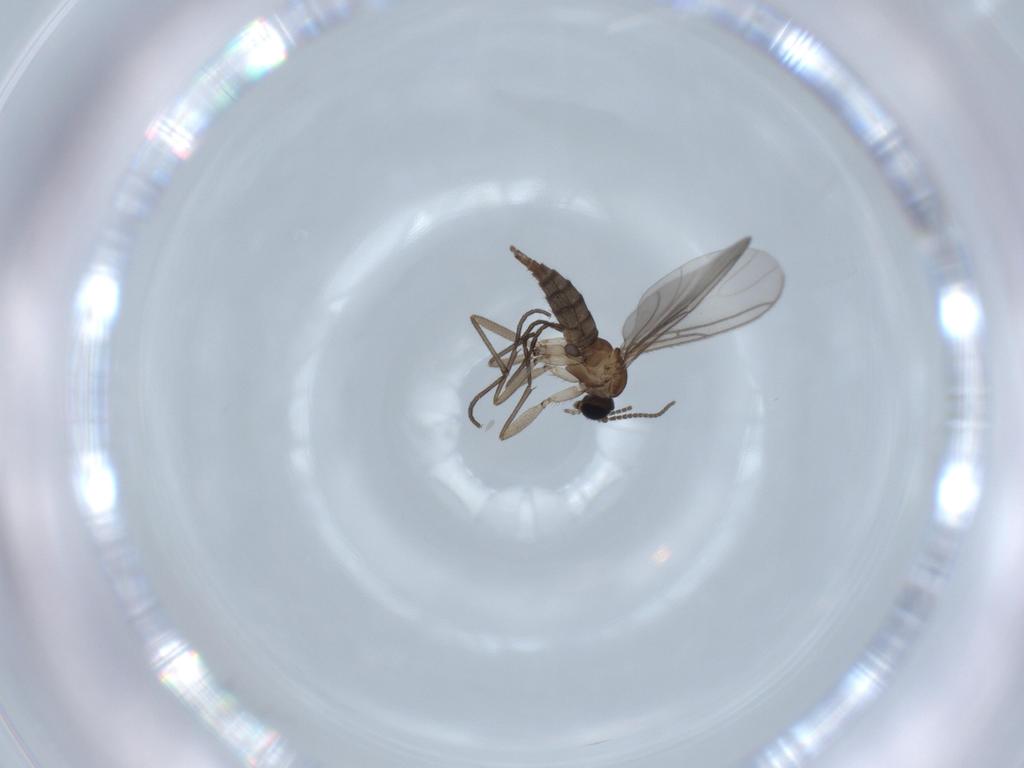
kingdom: Animalia
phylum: Arthropoda
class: Insecta
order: Diptera
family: Sciaridae
